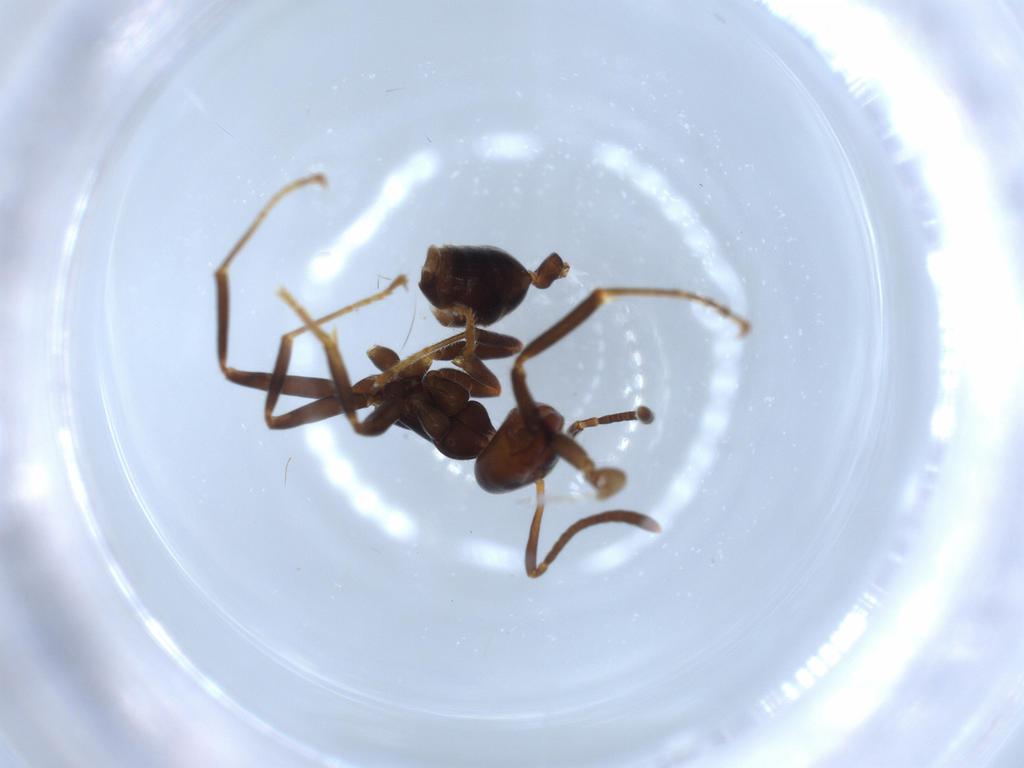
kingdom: Animalia
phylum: Arthropoda
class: Insecta
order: Hymenoptera
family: Formicidae
